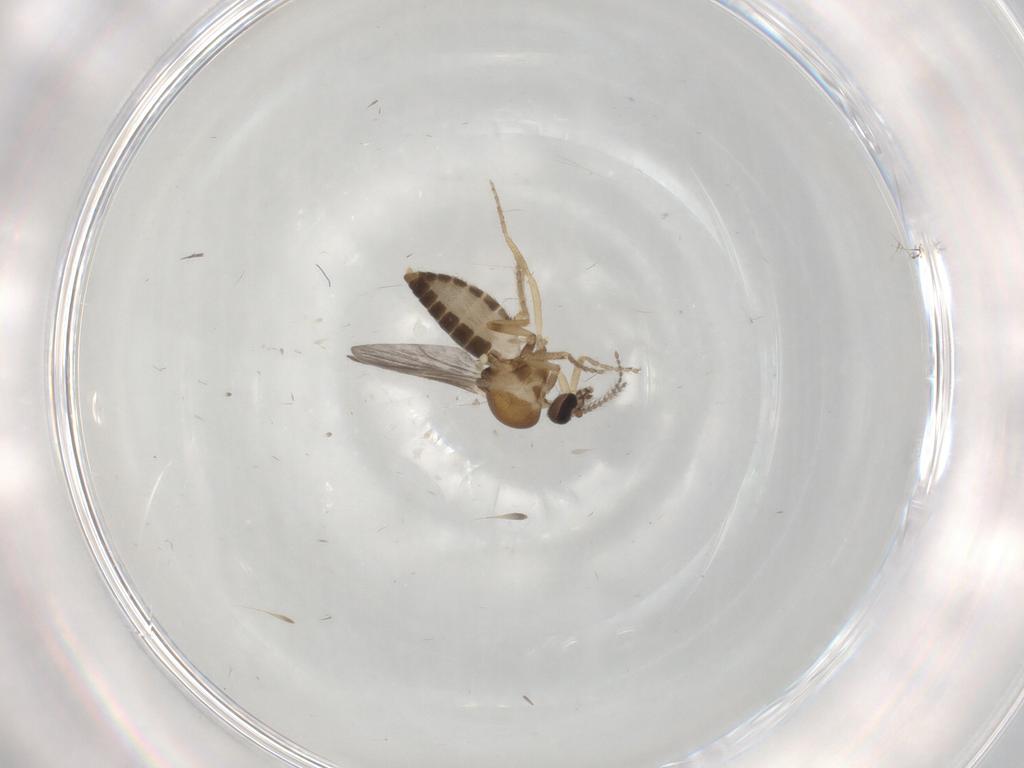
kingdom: Animalia
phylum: Arthropoda
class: Insecta
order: Diptera
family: Ceratopogonidae
